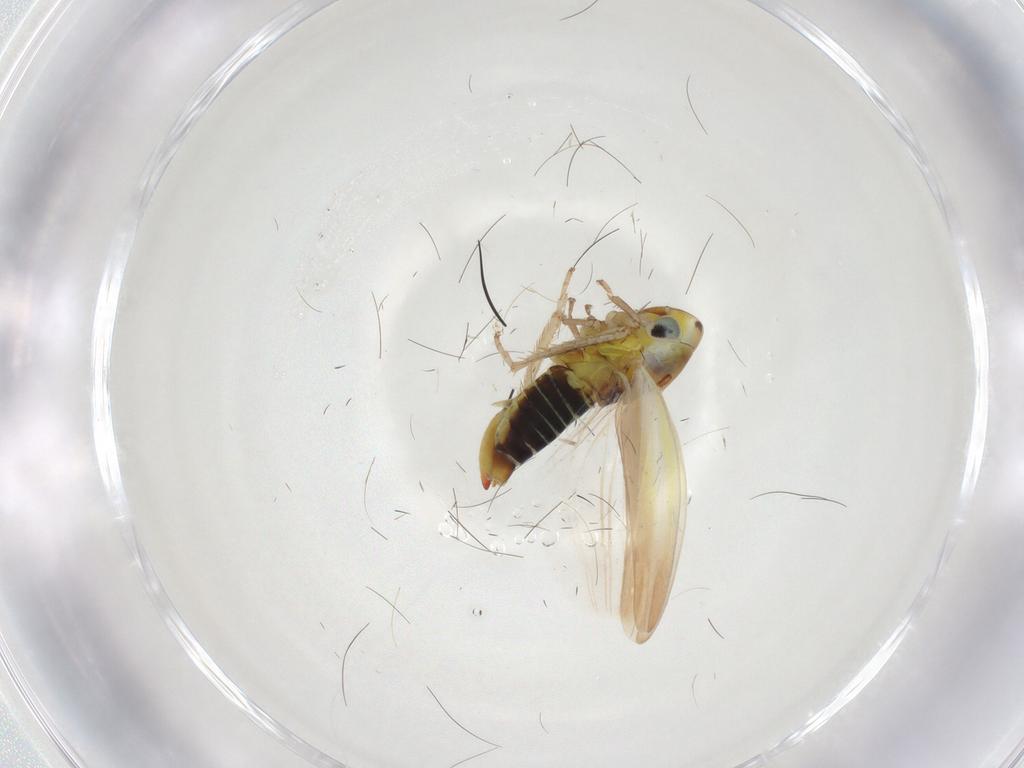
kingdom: Animalia
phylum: Arthropoda
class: Insecta
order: Hemiptera
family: Cicadellidae
